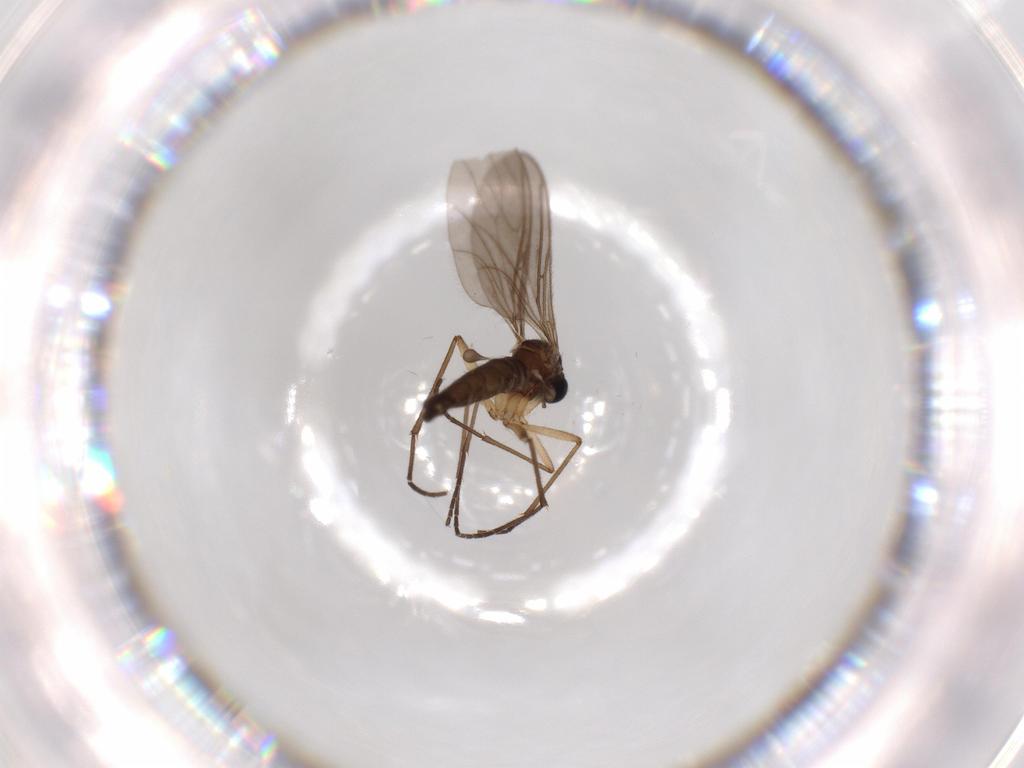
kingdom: Animalia
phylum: Arthropoda
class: Insecta
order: Diptera
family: Sciaridae
